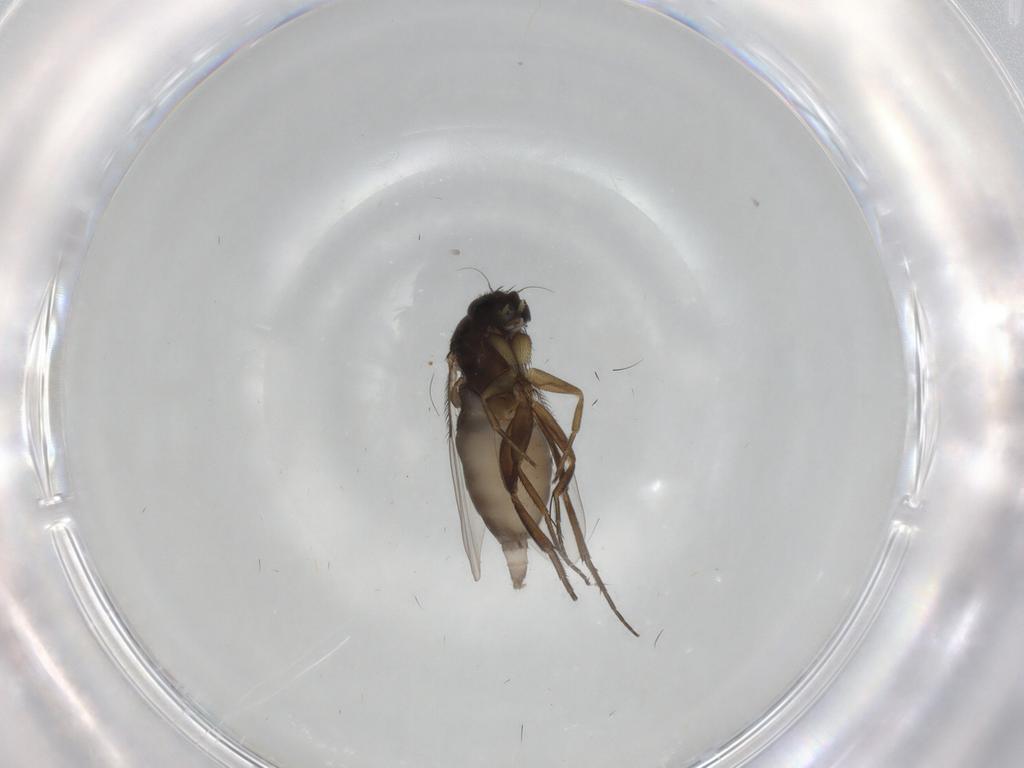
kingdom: Animalia
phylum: Arthropoda
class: Insecta
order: Diptera
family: Phoridae
